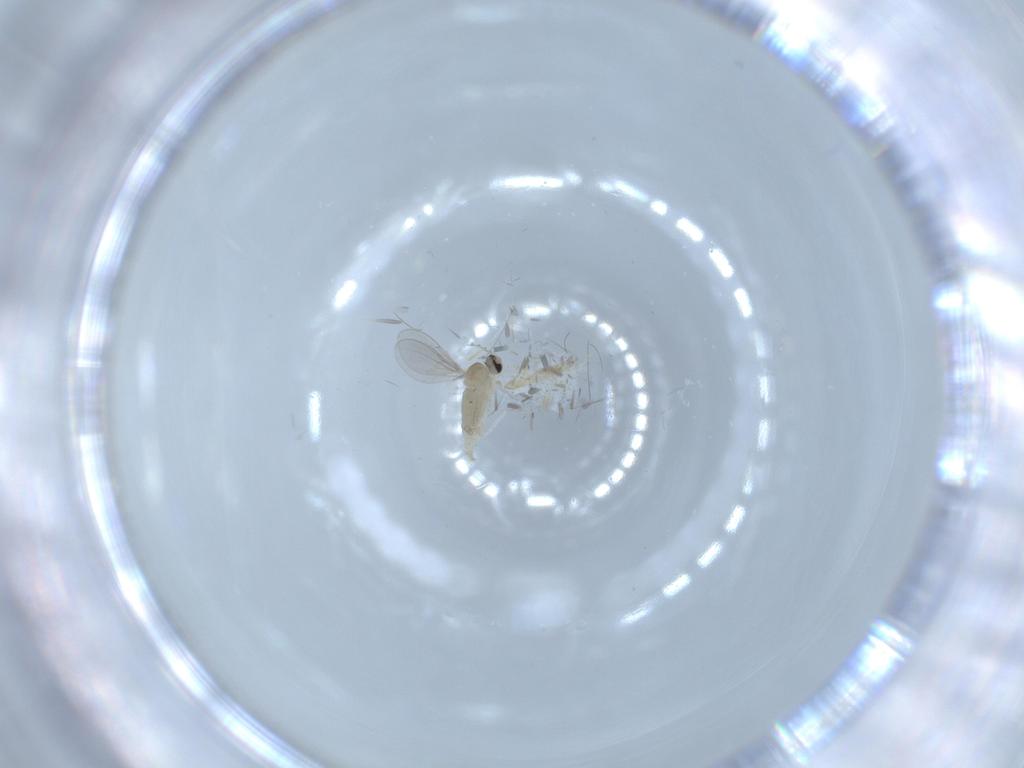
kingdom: Animalia
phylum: Arthropoda
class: Insecta
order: Diptera
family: Cecidomyiidae
